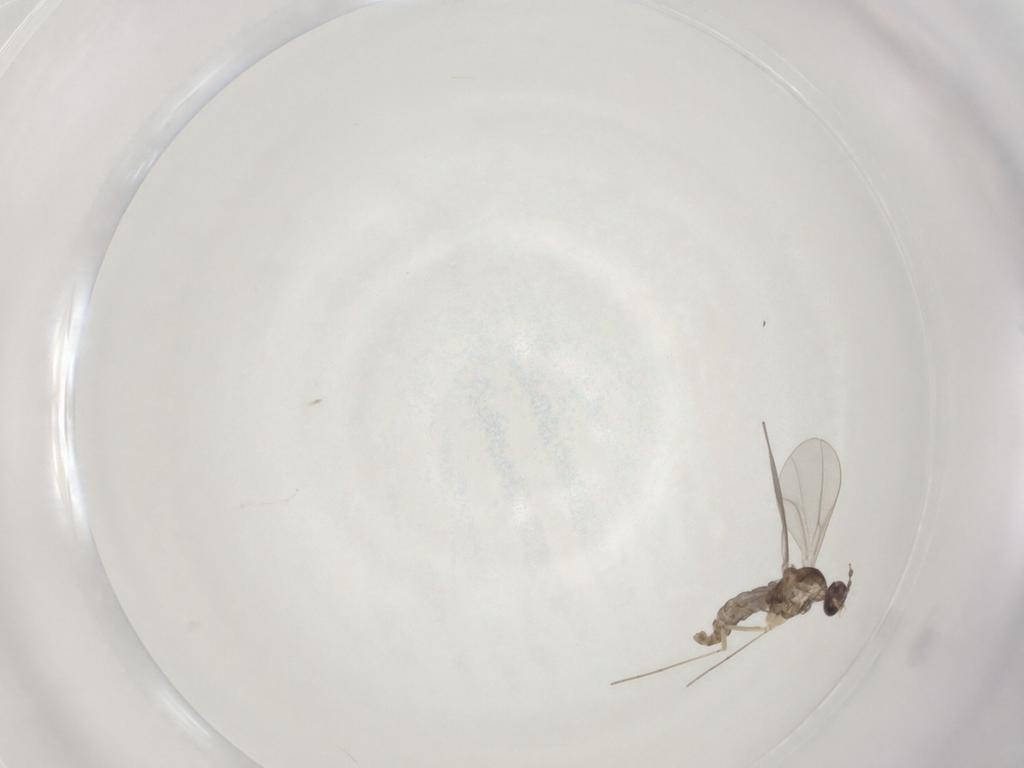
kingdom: Animalia
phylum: Arthropoda
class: Insecta
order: Diptera
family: Cecidomyiidae
